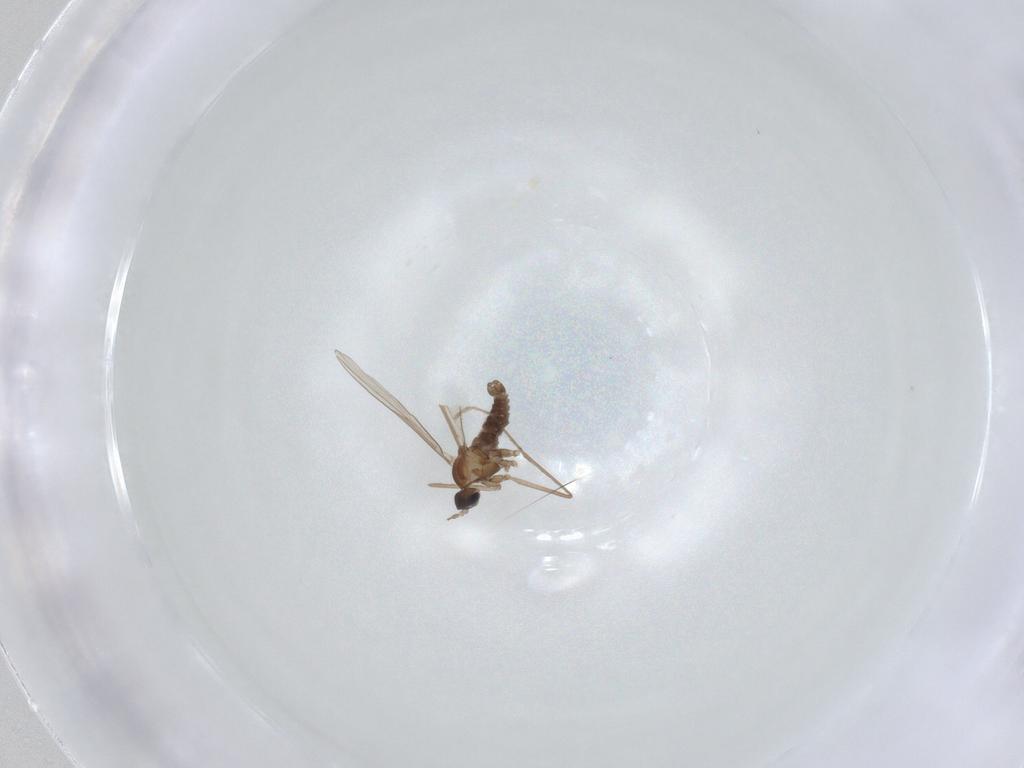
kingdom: Animalia
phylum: Arthropoda
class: Insecta
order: Diptera
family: Cecidomyiidae
